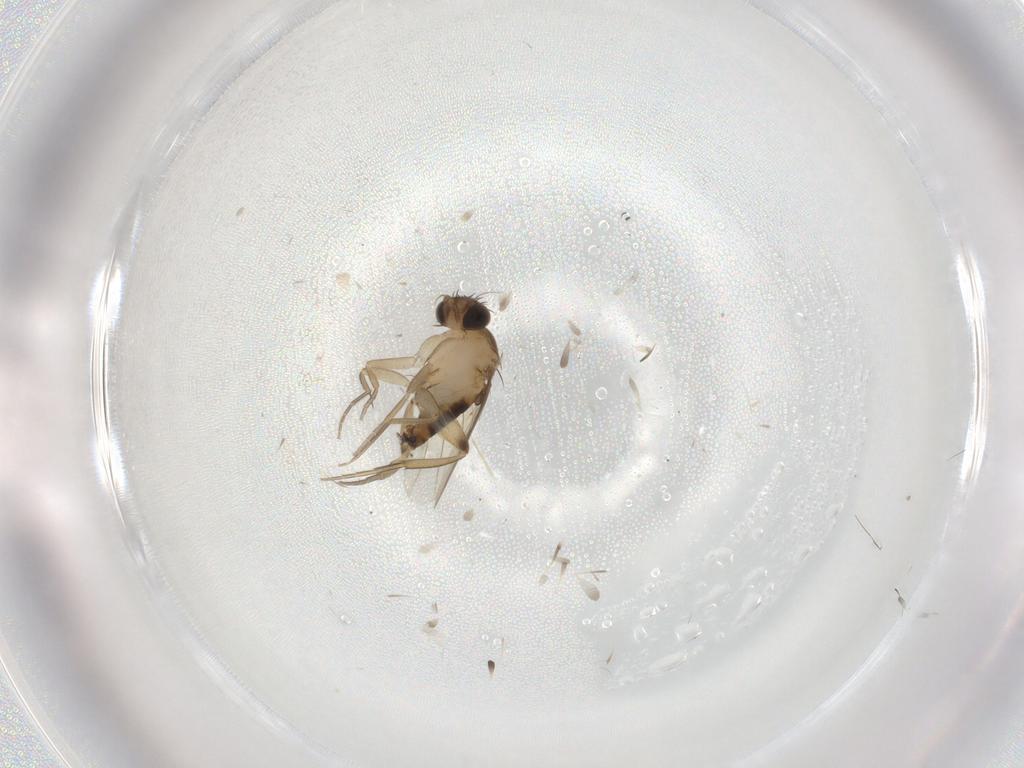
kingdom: Animalia
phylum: Arthropoda
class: Insecta
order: Diptera
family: Phoridae
